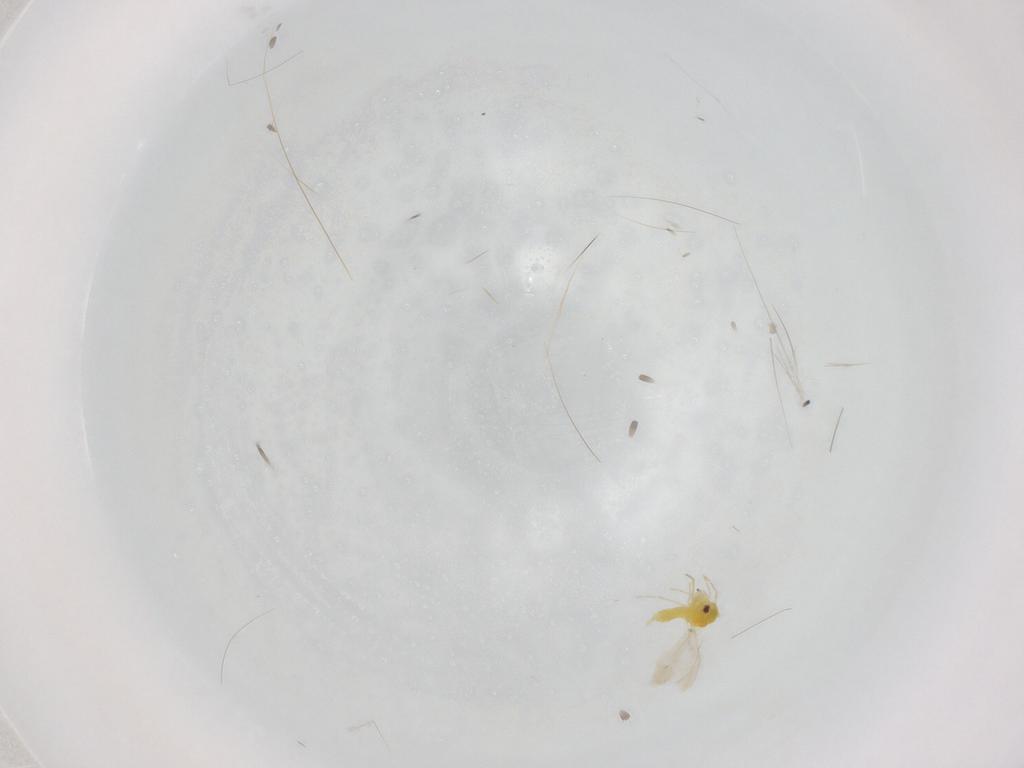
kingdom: Animalia
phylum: Arthropoda
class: Insecta
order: Hemiptera
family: Aleyrodidae
